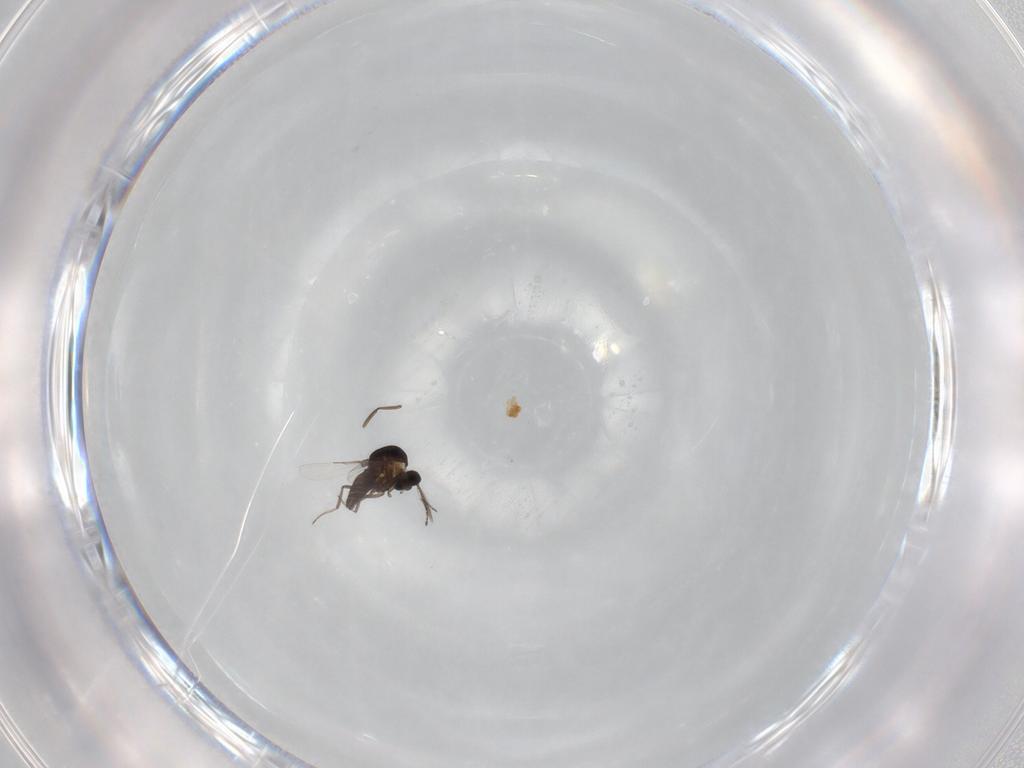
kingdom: Animalia
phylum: Arthropoda
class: Insecta
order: Diptera
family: Ceratopogonidae
